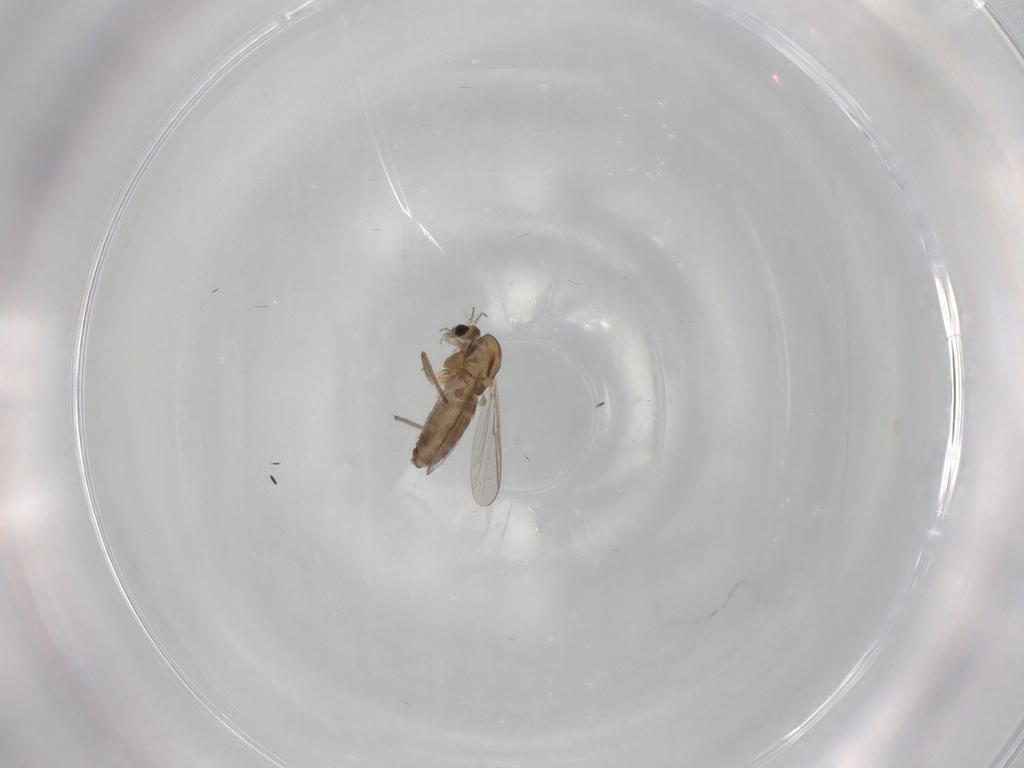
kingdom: Animalia
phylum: Arthropoda
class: Insecta
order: Diptera
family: Chironomidae
